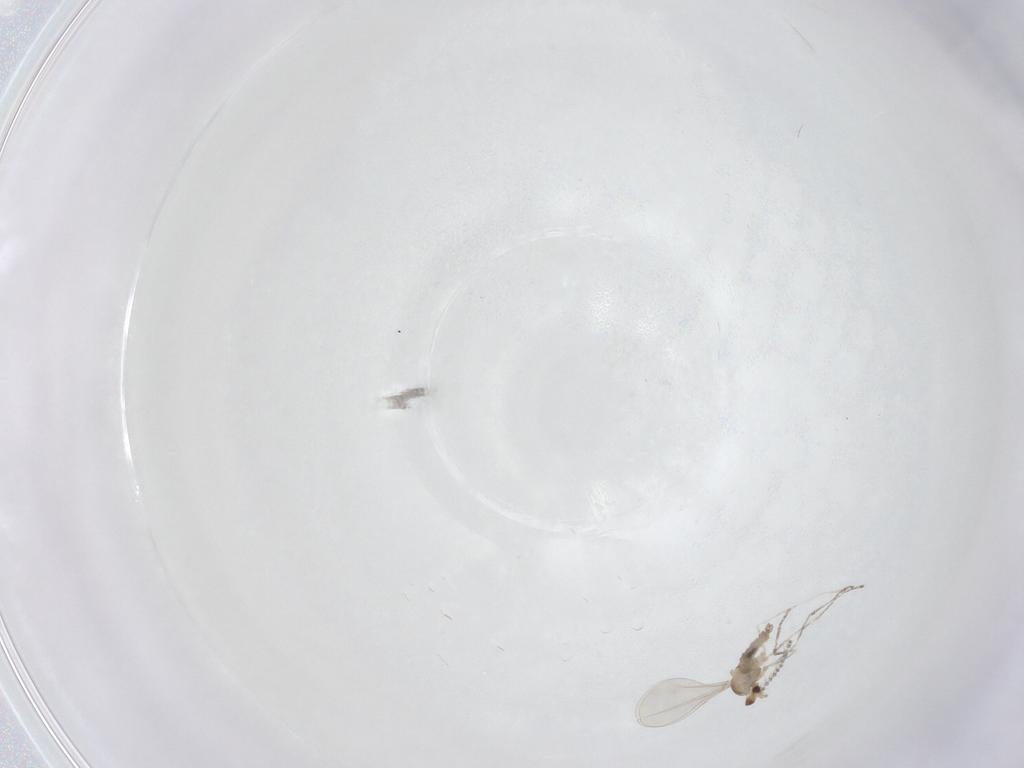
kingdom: Animalia
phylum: Arthropoda
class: Insecta
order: Diptera
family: Cecidomyiidae
